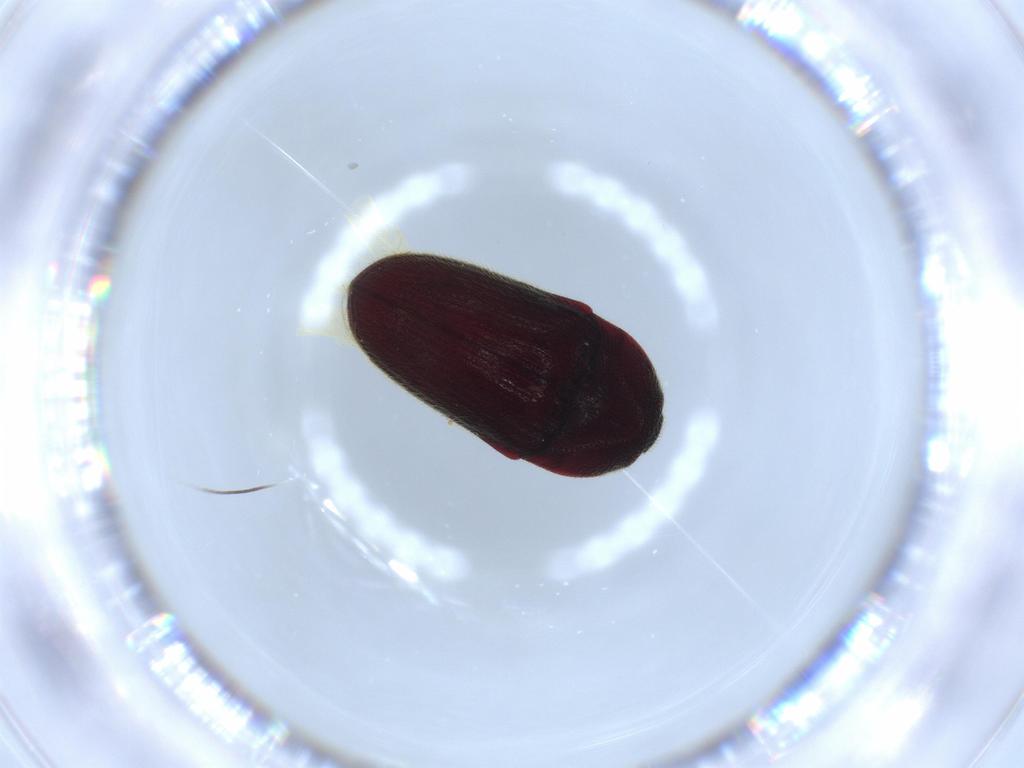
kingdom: Animalia
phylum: Arthropoda
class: Insecta
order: Coleoptera
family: Throscidae
